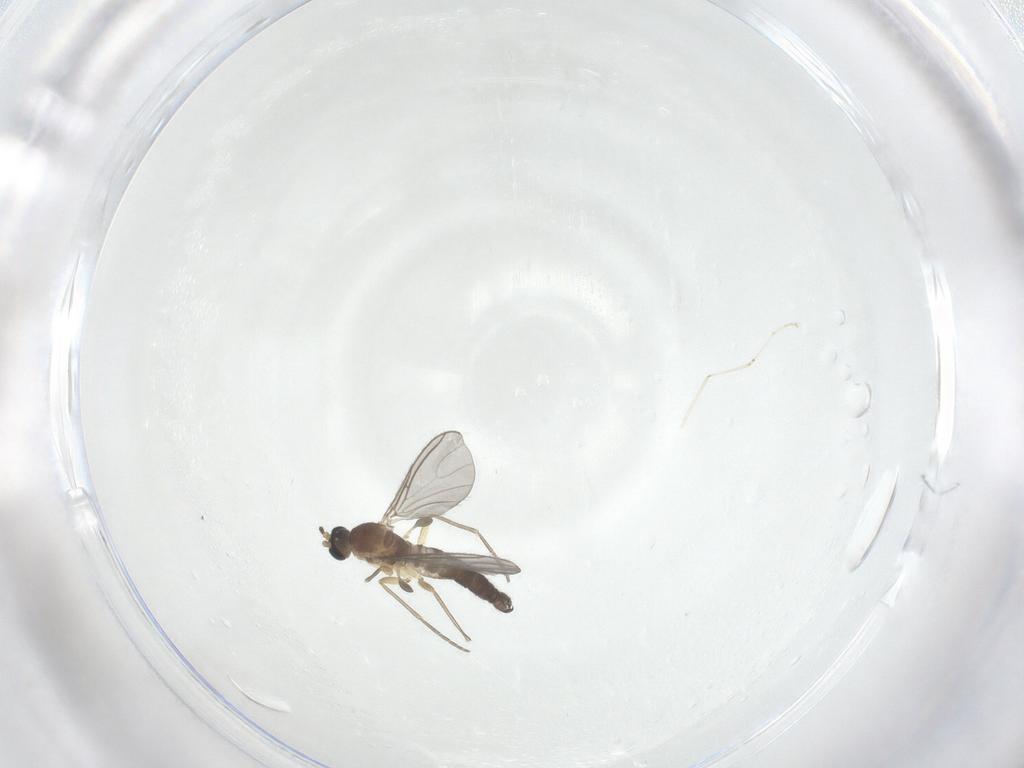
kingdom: Animalia
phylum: Arthropoda
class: Insecta
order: Diptera
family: Sciaridae
